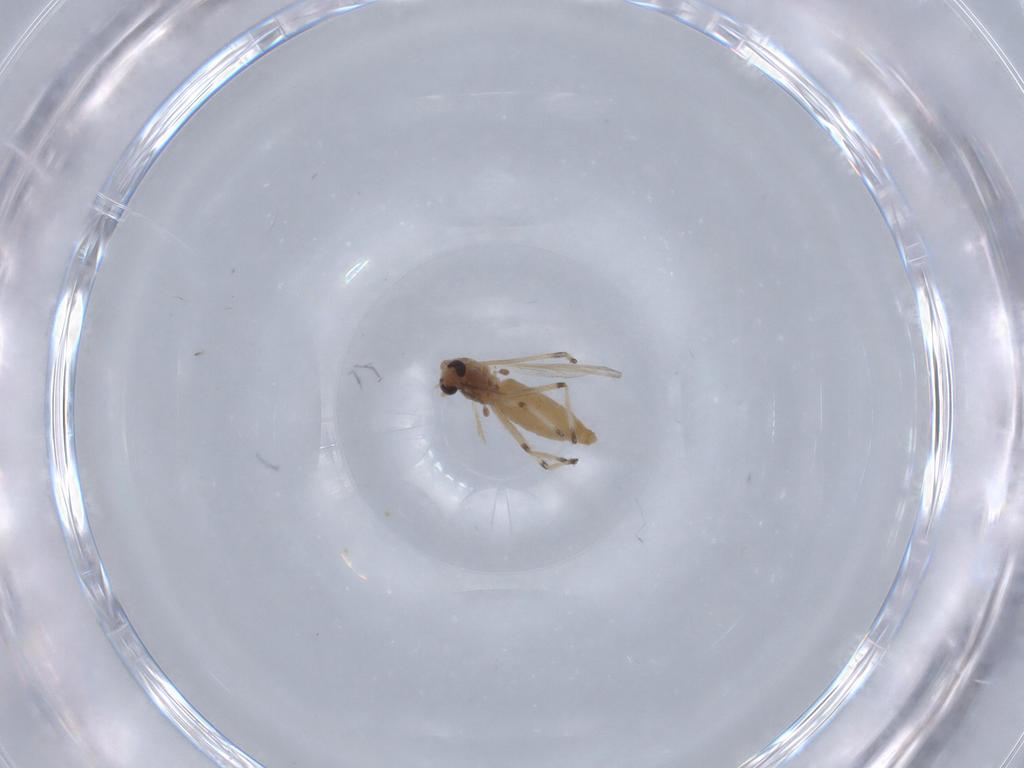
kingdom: Animalia
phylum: Arthropoda
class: Insecta
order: Diptera
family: Chironomidae
